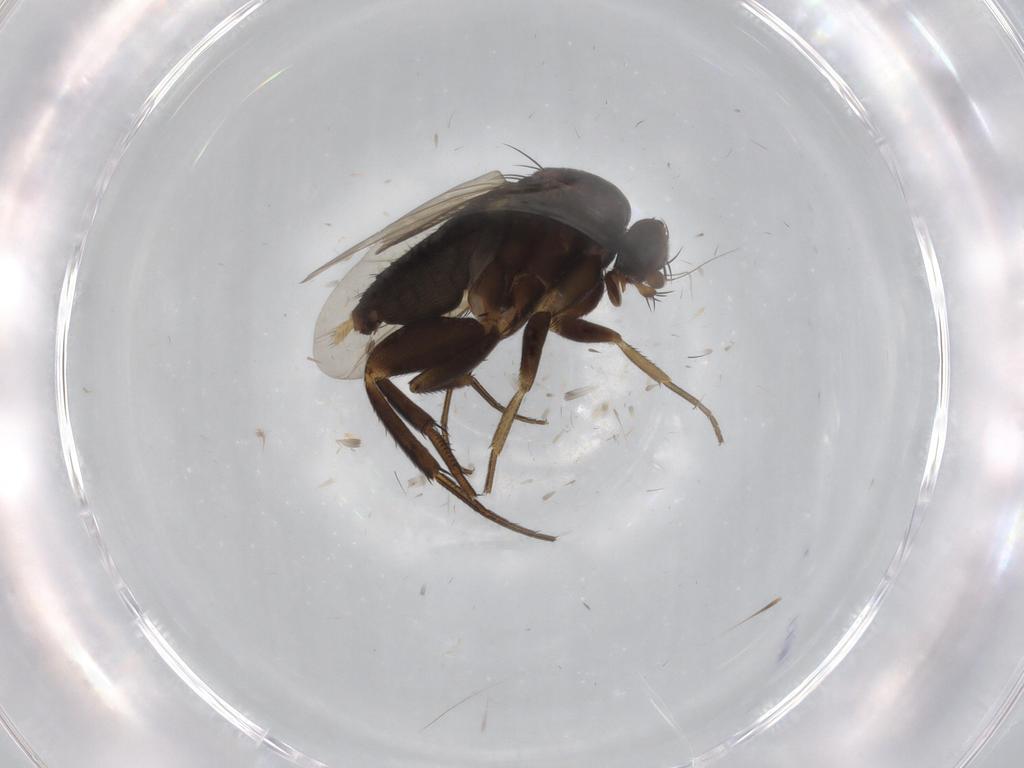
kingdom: Animalia
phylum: Arthropoda
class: Insecta
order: Diptera
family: Phoridae
